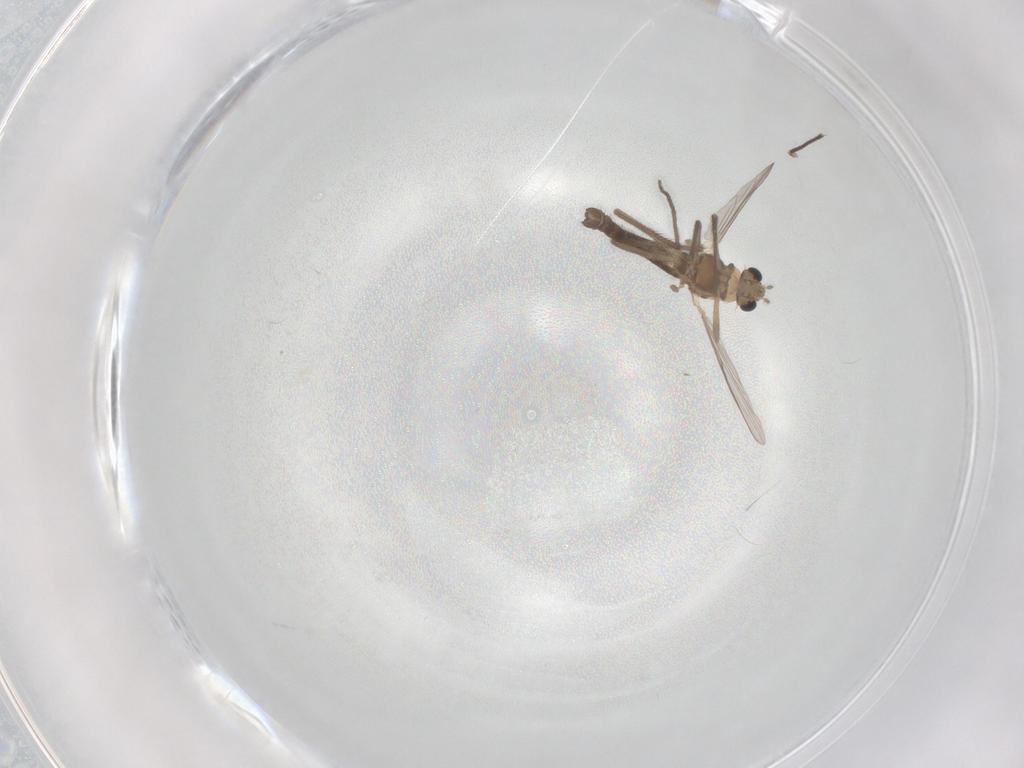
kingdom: Animalia
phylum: Arthropoda
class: Insecta
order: Diptera
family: Chironomidae
